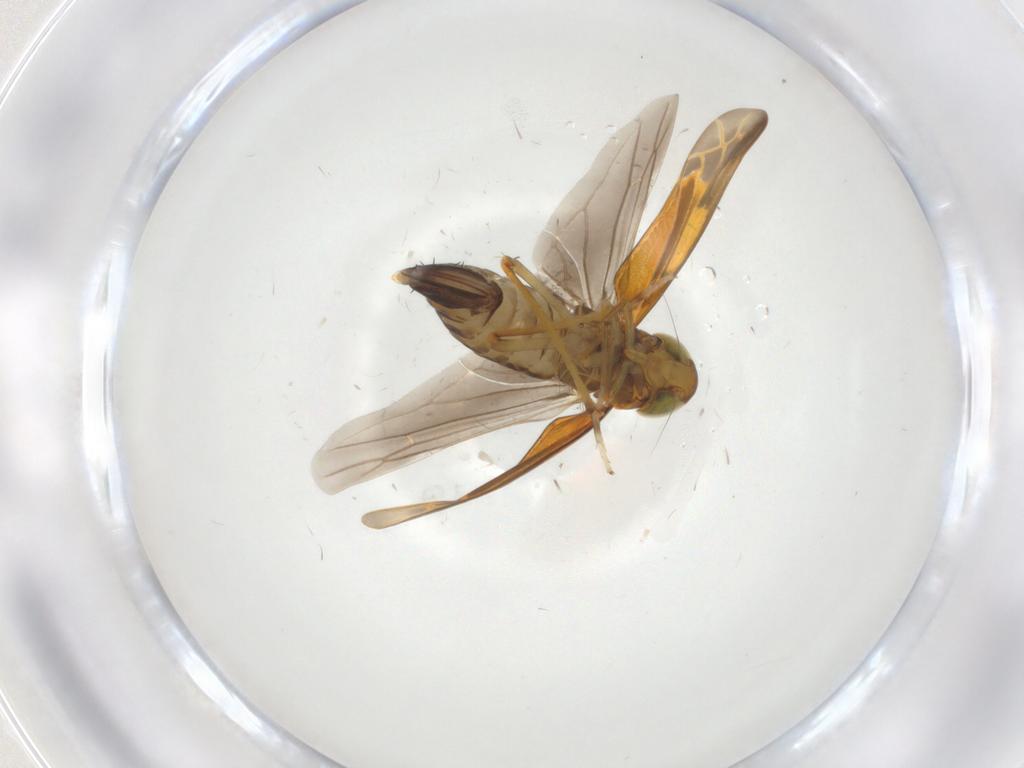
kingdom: Animalia
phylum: Arthropoda
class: Insecta
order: Hemiptera
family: Cicadellidae
